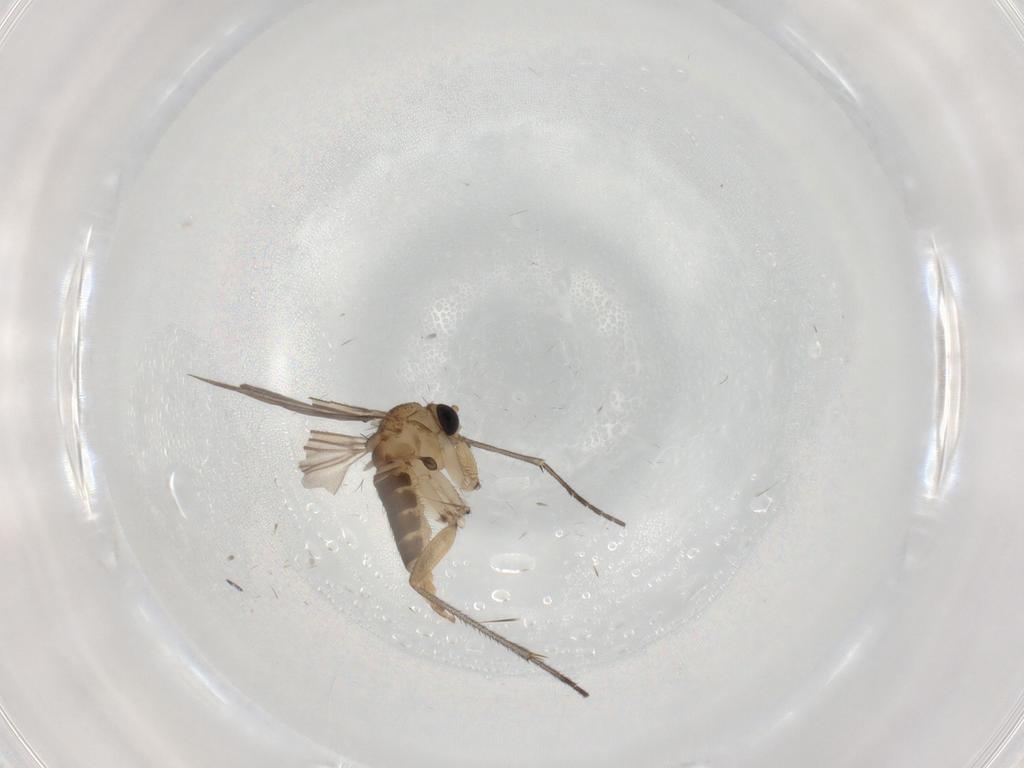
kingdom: Animalia
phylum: Arthropoda
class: Insecta
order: Diptera
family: Sciaridae
